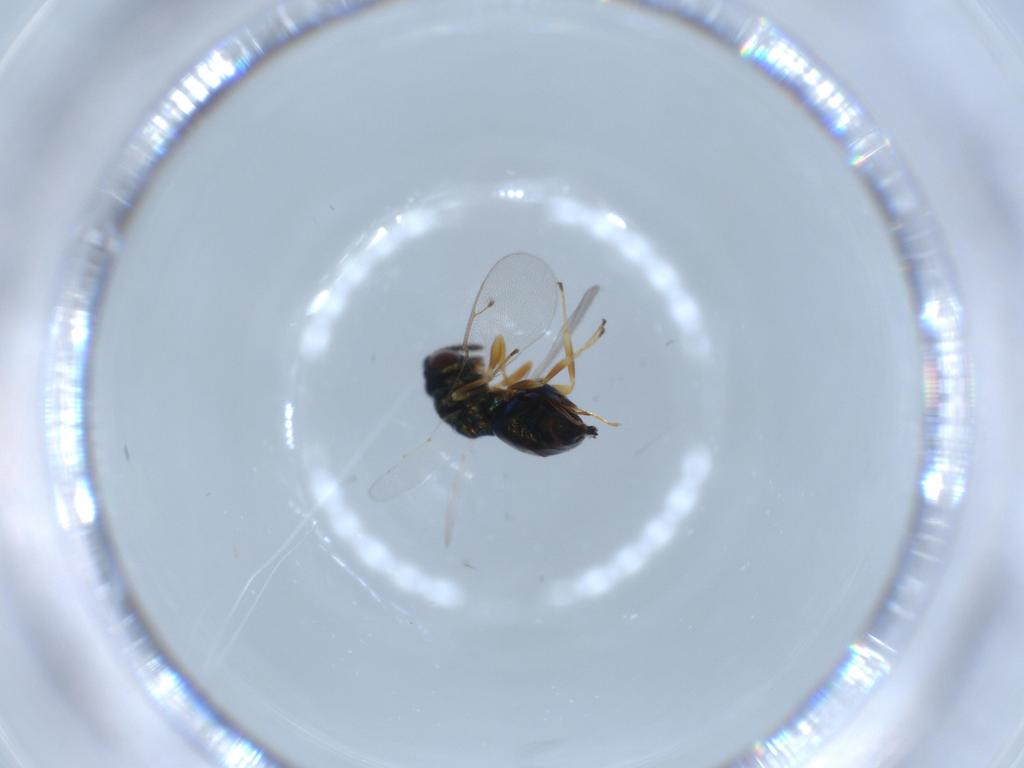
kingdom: Animalia
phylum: Arthropoda
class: Insecta
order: Hymenoptera
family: Pteromalidae
